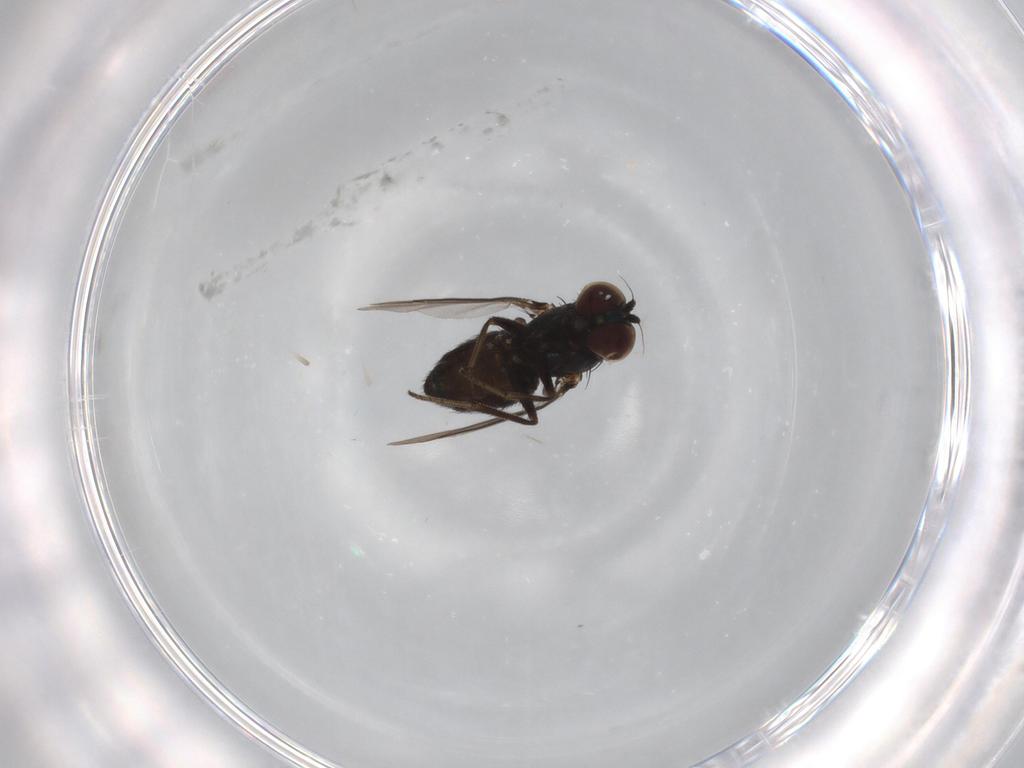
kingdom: Animalia
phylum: Arthropoda
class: Insecta
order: Diptera
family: Dolichopodidae
